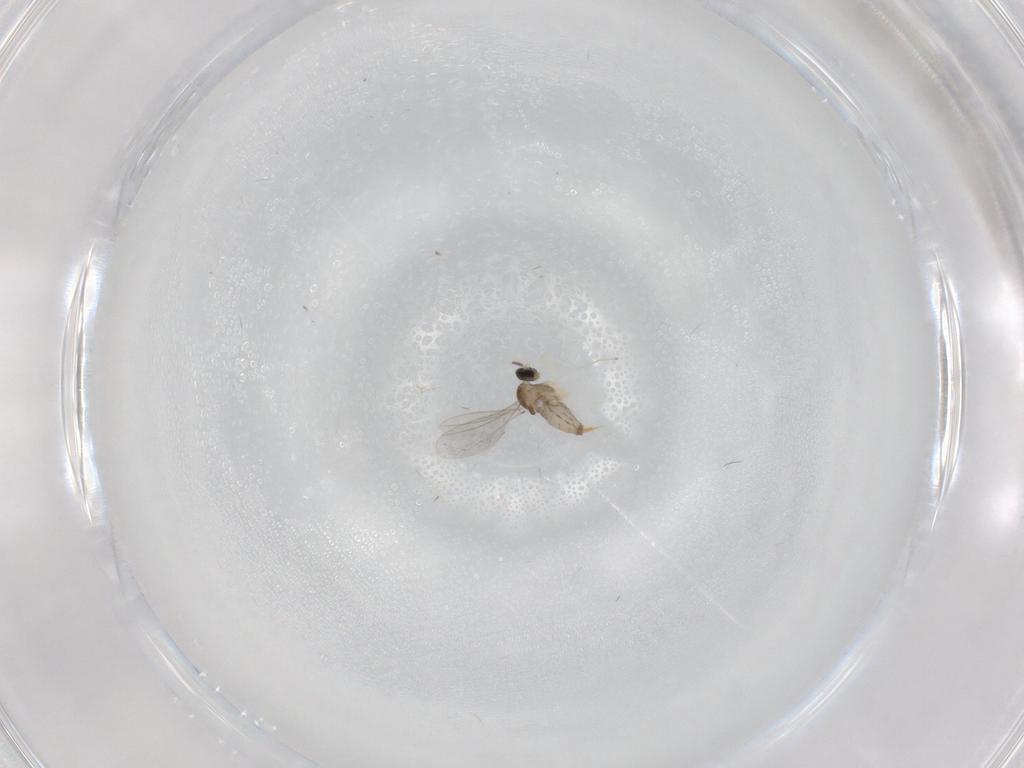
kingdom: Animalia
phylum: Arthropoda
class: Insecta
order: Diptera
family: Cecidomyiidae
